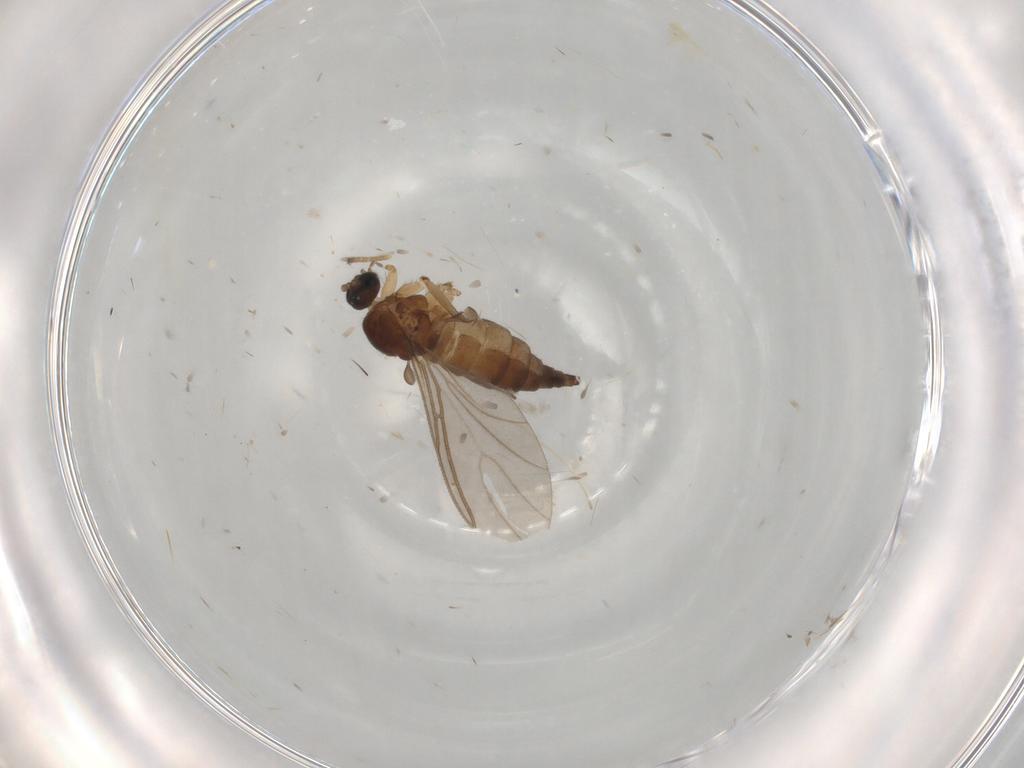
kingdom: Animalia
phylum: Arthropoda
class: Insecta
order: Diptera
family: Sciaridae
